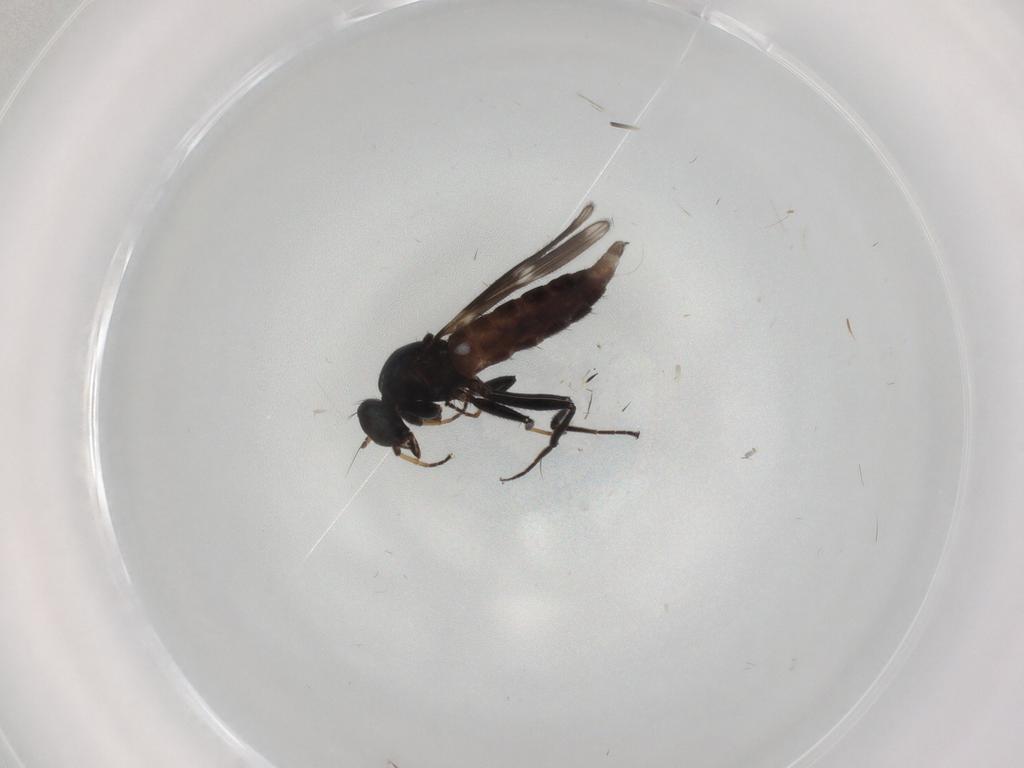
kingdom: Animalia
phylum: Arthropoda
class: Insecta
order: Diptera
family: Hybotidae
